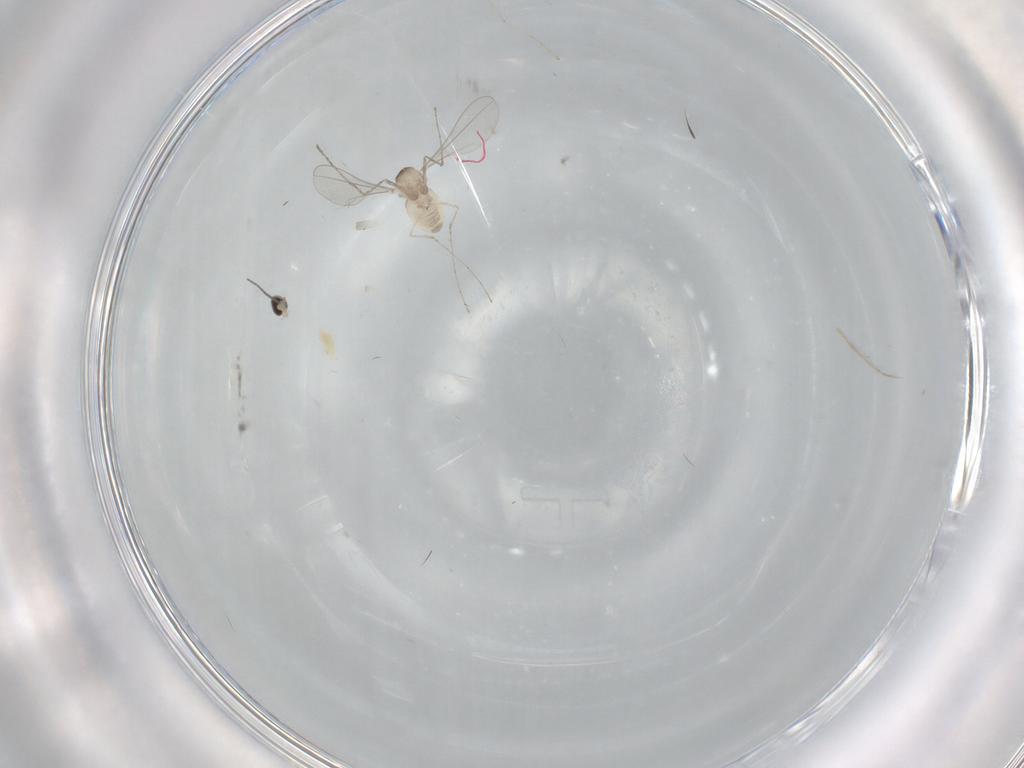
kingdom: Animalia
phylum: Arthropoda
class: Insecta
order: Diptera
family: Cecidomyiidae
